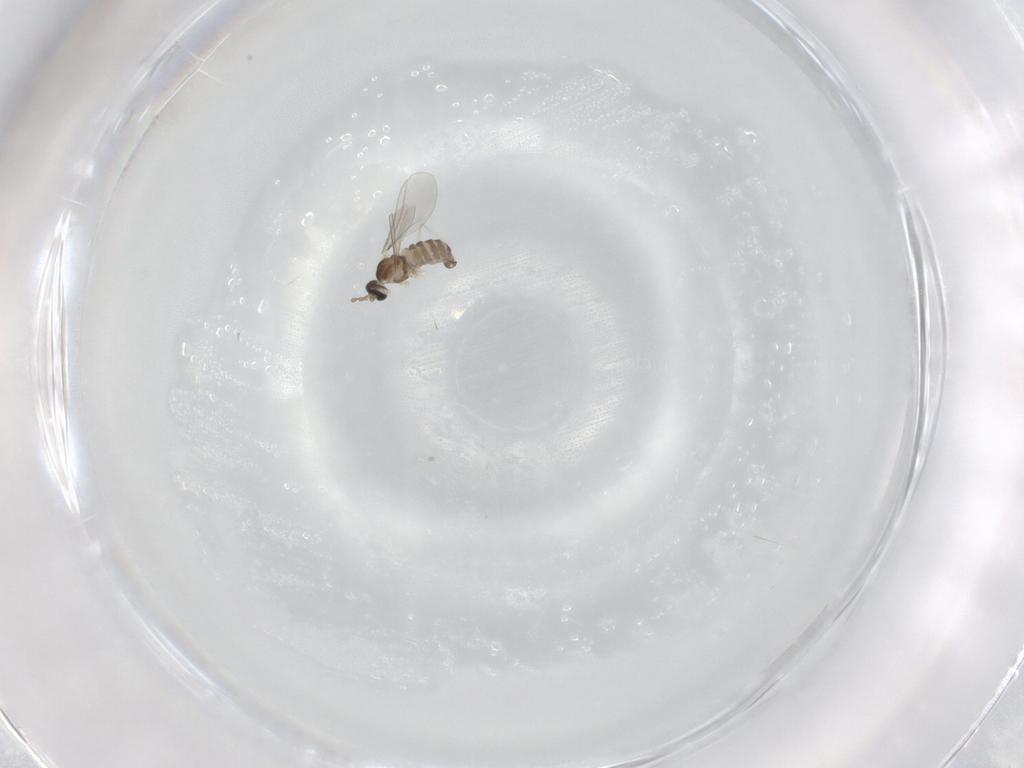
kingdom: Animalia
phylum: Arthropoda
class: Insecta
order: Diptera
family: Cecidomyiidae
